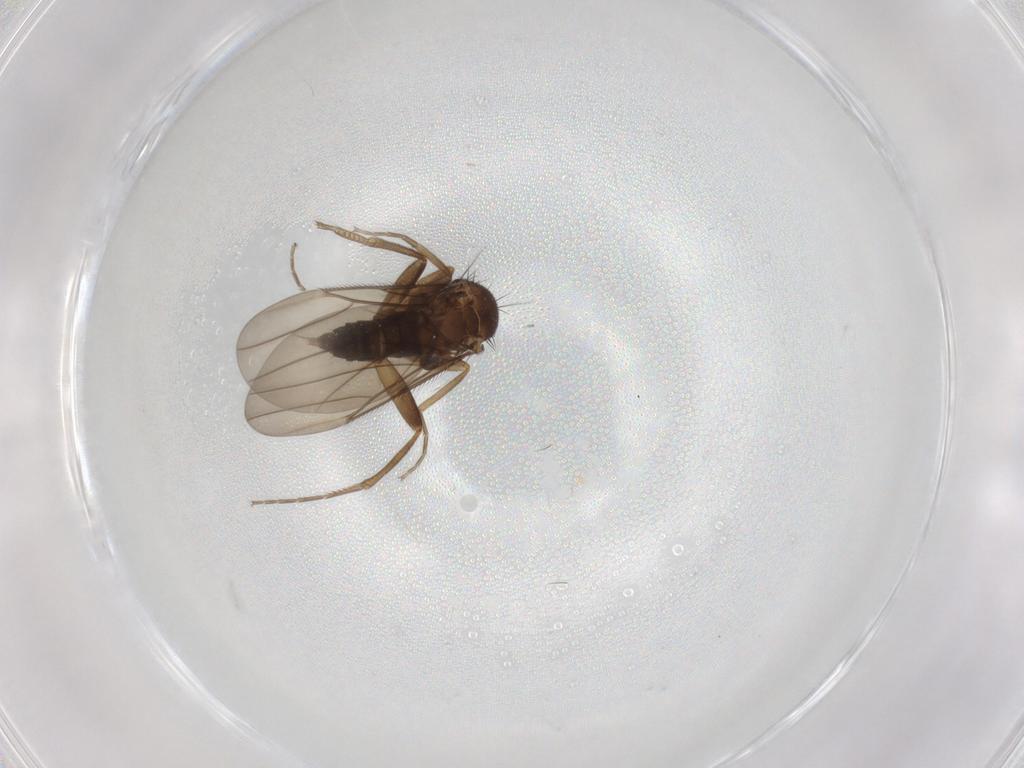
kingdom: Animalia
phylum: Arthropoda
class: Insecta
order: Diptera
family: Phoridae
